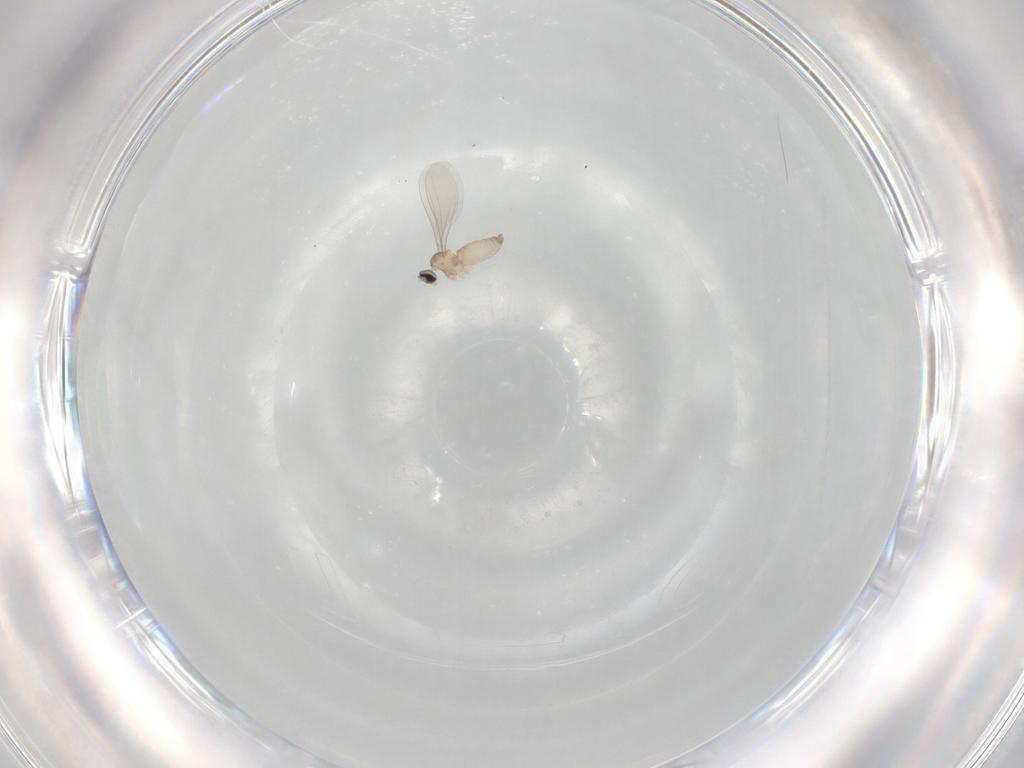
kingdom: Animalia
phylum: Arthropoda
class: Insecta
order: Diptera
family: Cecidomyiidae
